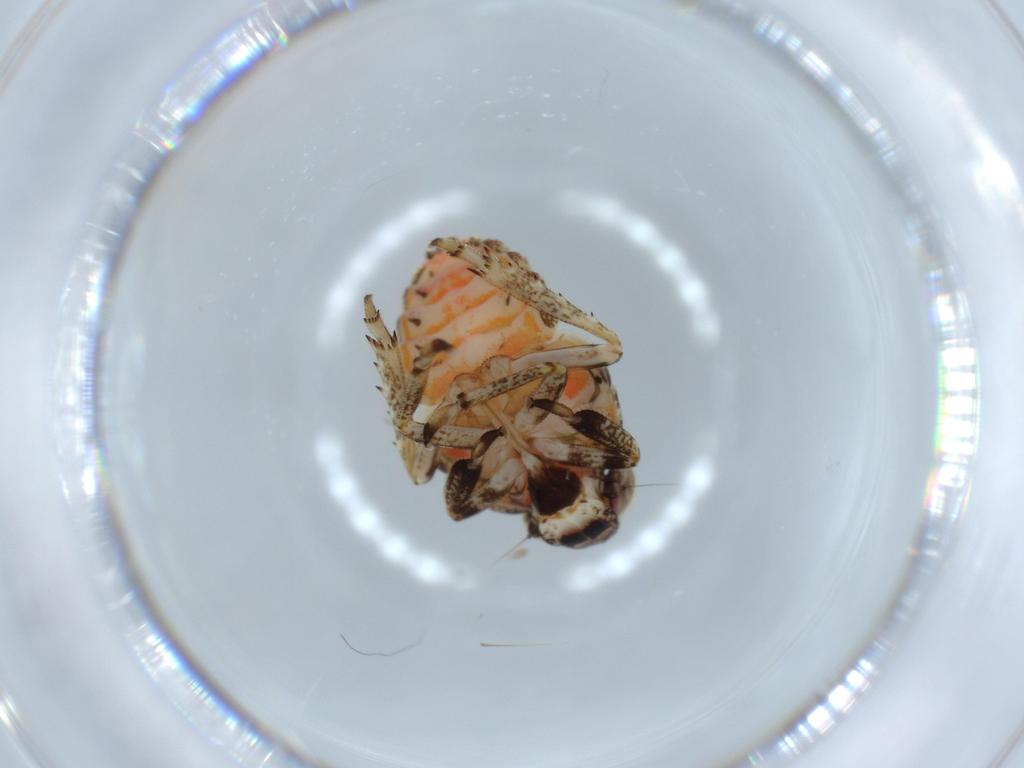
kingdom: Animalia
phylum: Arthropoda
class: Insecta
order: Hemiptera
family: Issidae
